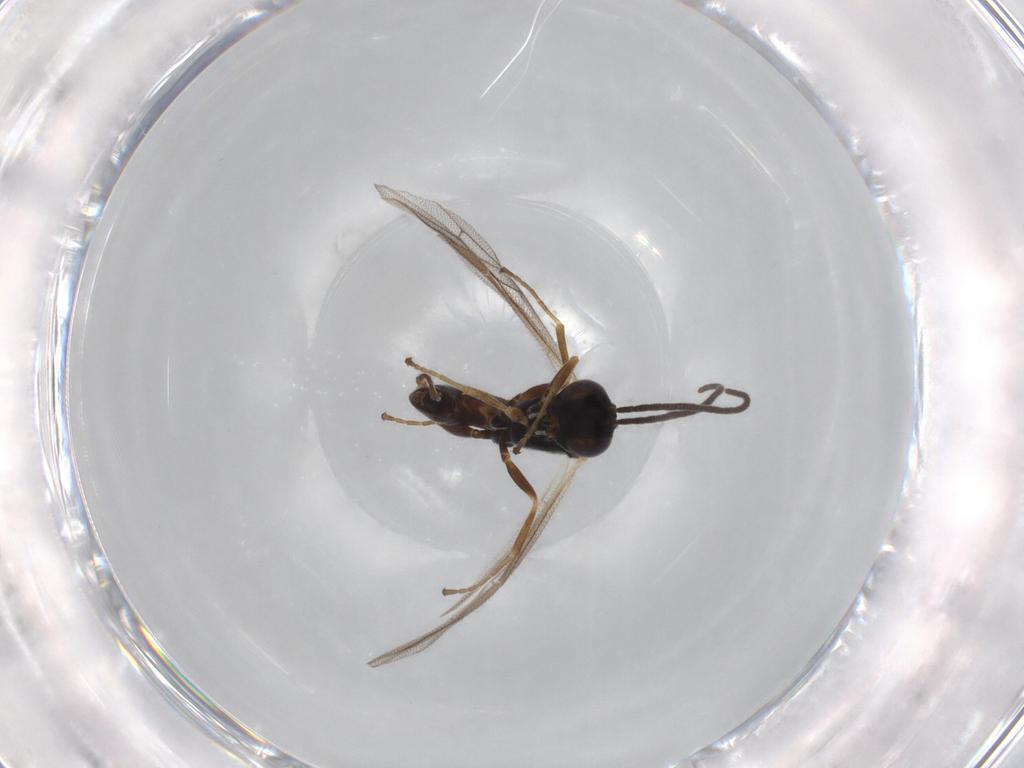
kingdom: Animalia
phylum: Arthropoda
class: Insecta
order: Hymenoptera
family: Ichneumonidae
